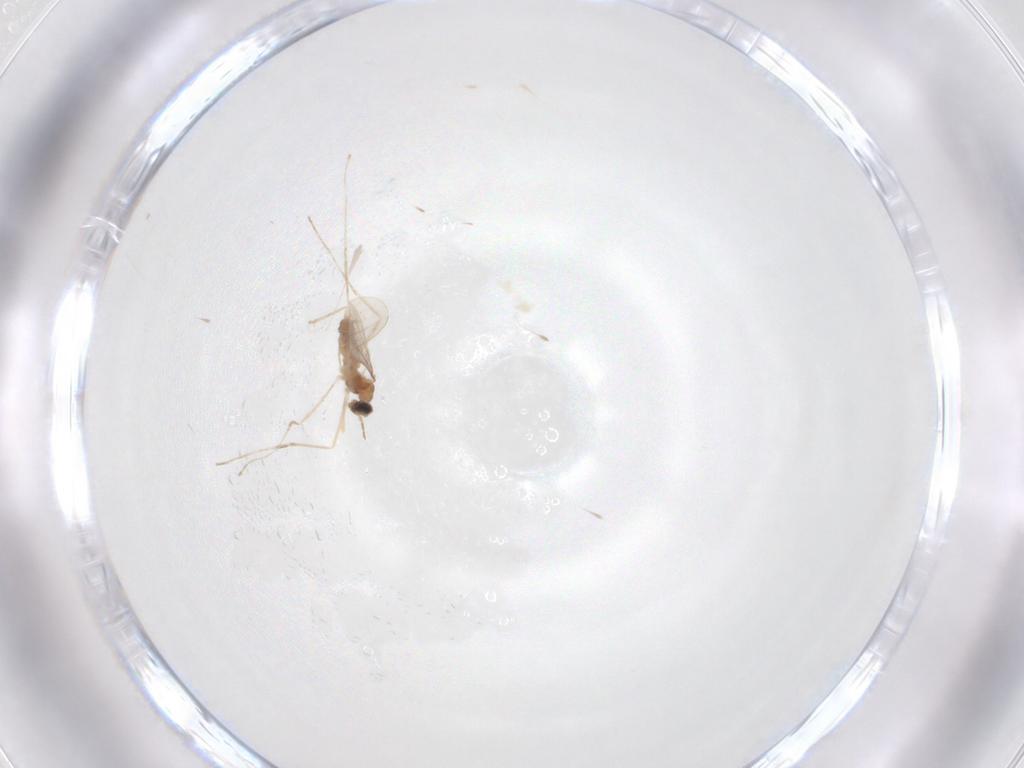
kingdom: Animalia
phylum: Arthropoda
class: Insecta
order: Diptera
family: Cecidomyiidae
